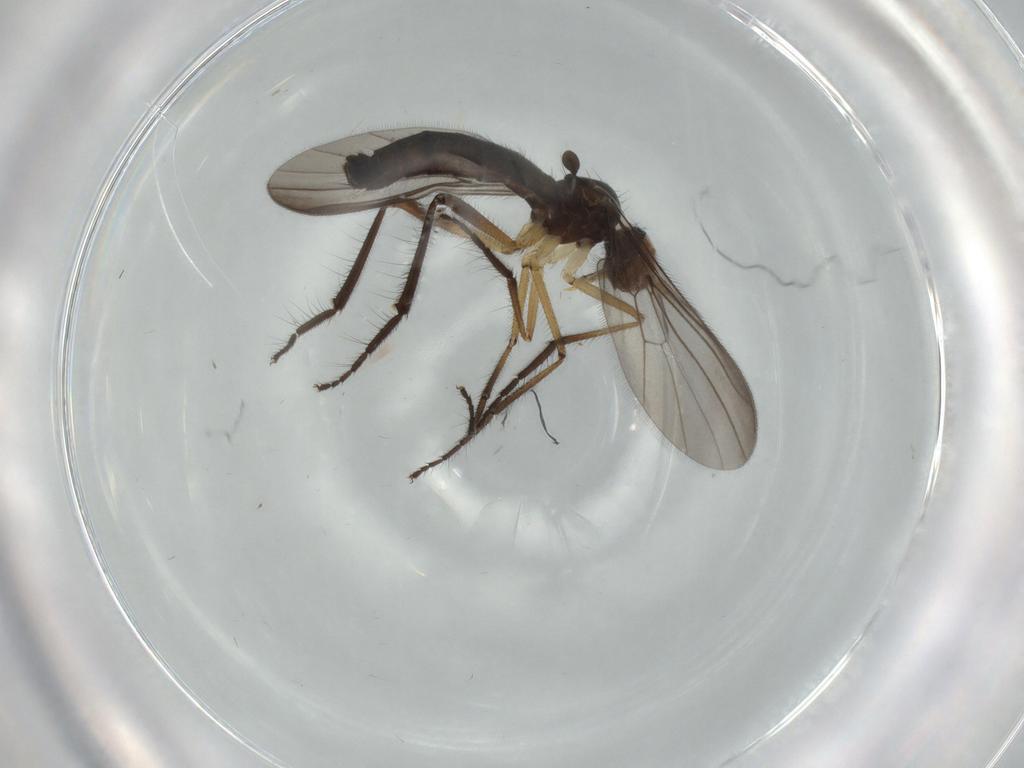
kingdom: Animalia
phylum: Arthropoda
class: Insecta
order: Diptera
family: Empididae
